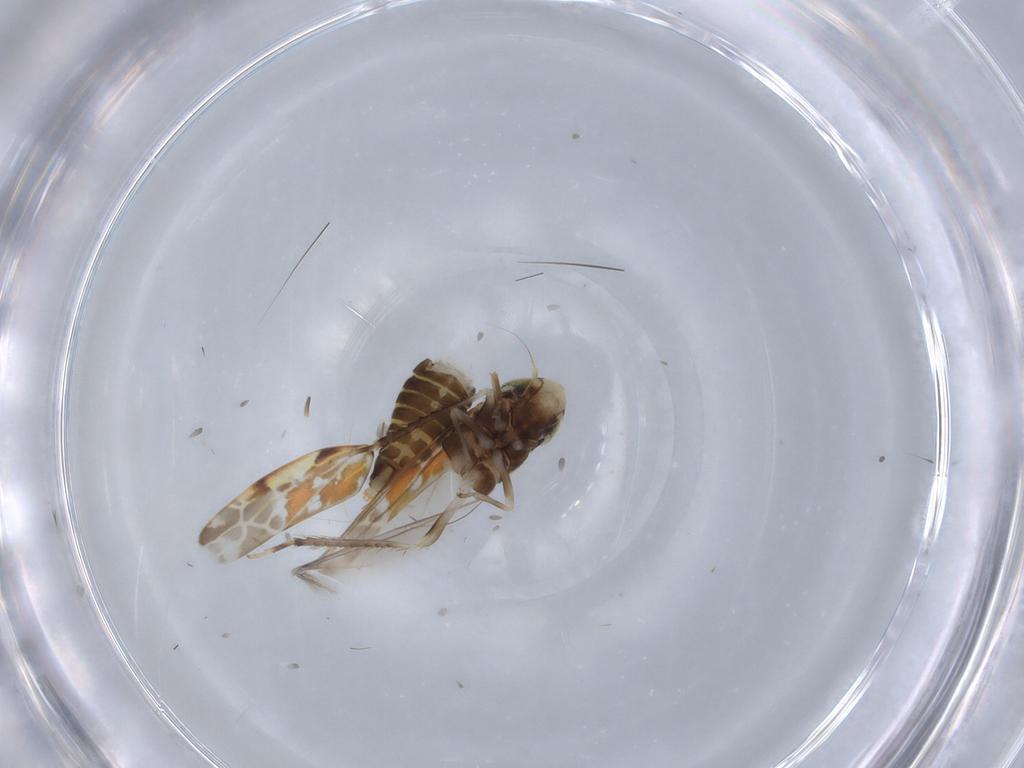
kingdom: Animalia
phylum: Arthropoda
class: Insecta
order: Hemiptera
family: Cicadellidae
